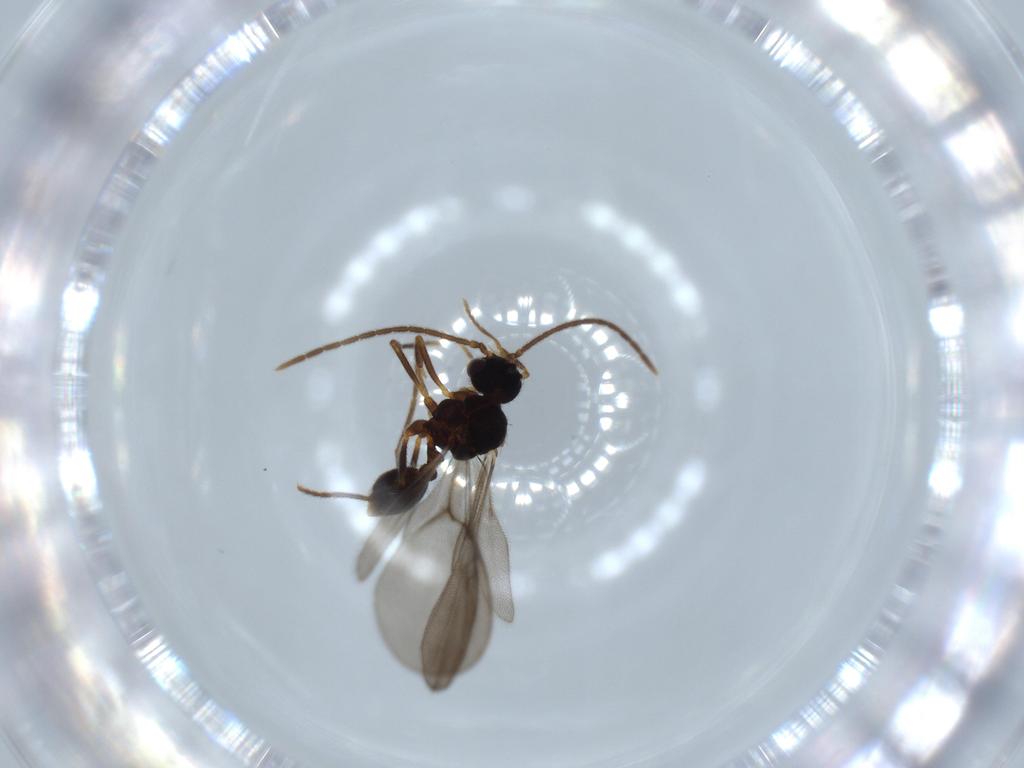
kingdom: Animalia
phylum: Arthropoda
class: Insecta
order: Hymenoptera
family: Formicidae
